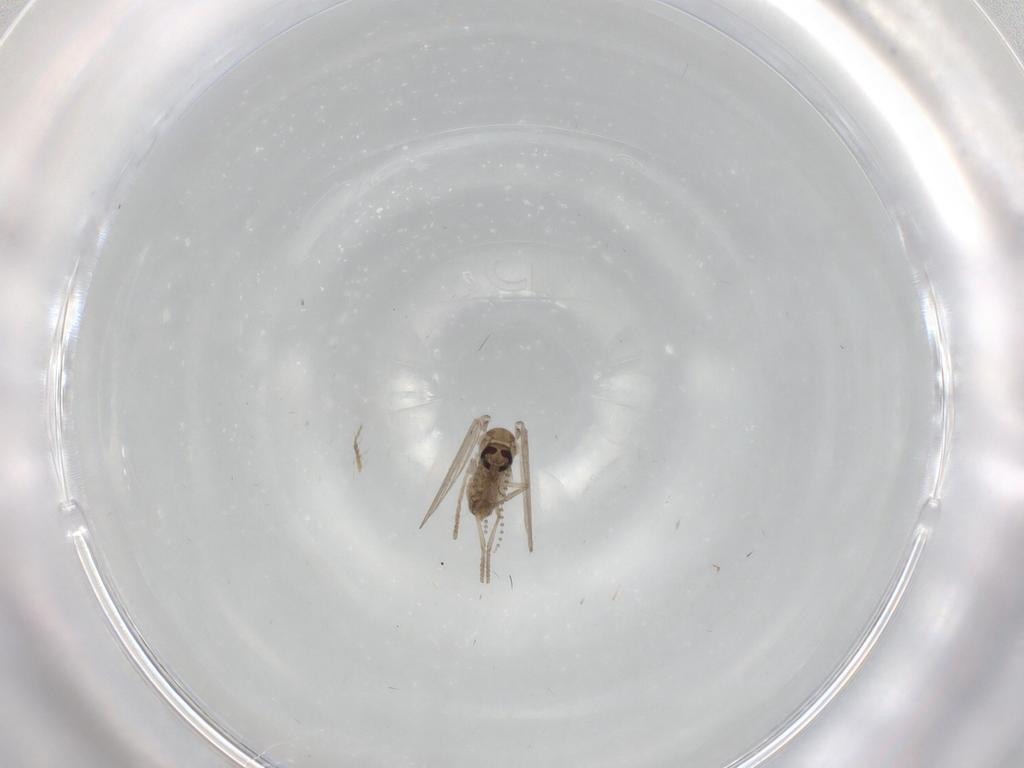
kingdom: Animalia
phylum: Arthropoda
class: Insecta
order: Diptera
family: Psychodidae
